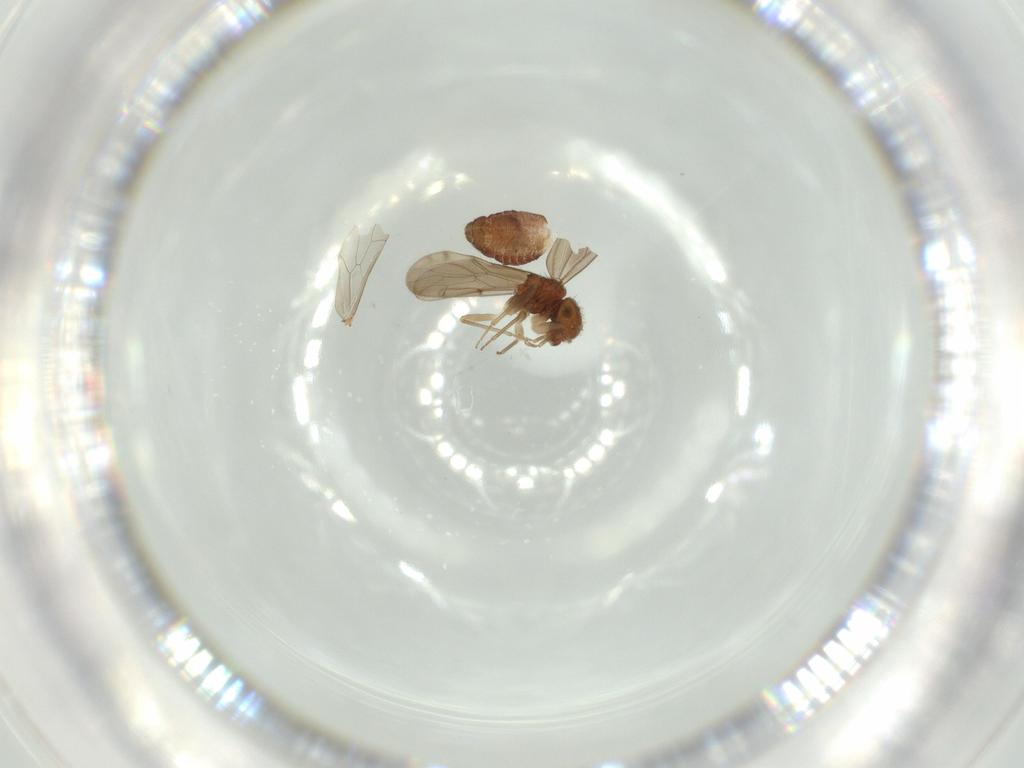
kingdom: Animalia
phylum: Arthropoda
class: Insecta
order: Psocodea
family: Ectopsocidae
